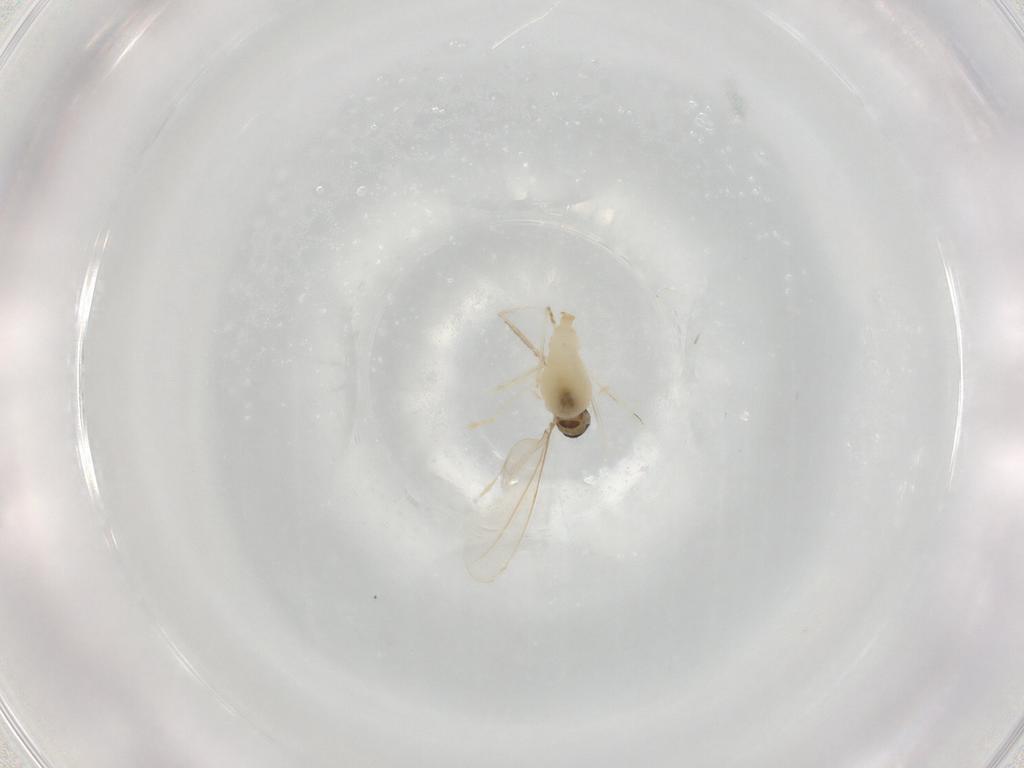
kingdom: Animalia
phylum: Arthropoda
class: Insecta
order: Diptera
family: Cecidomyiidae
